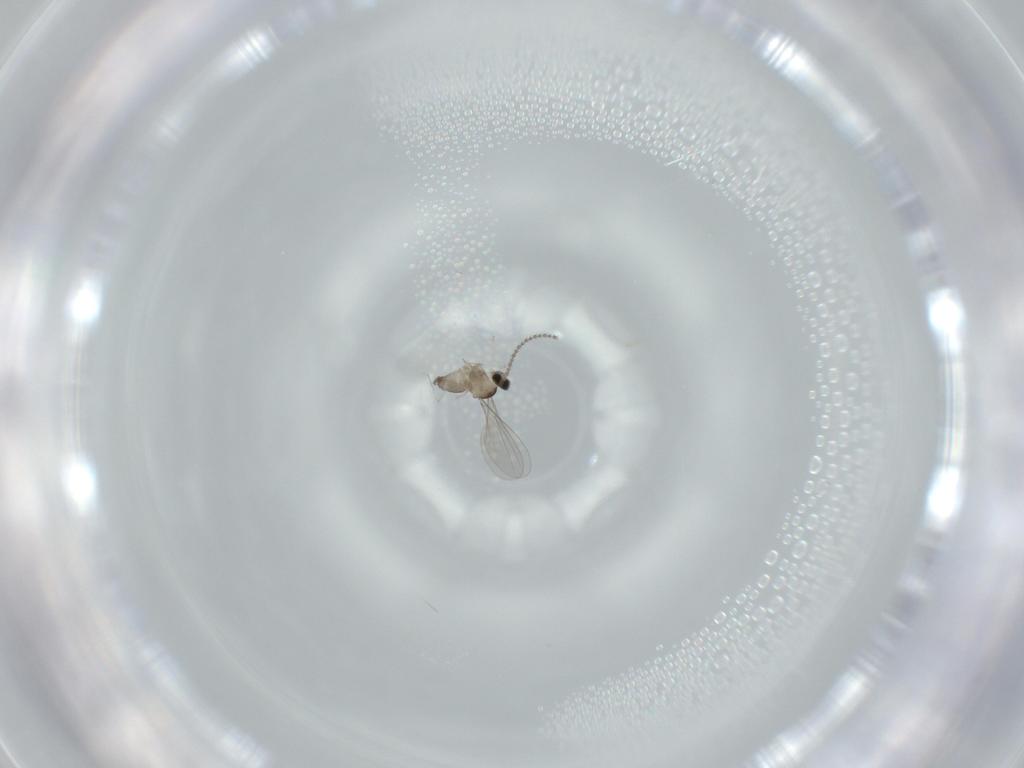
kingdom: Animalia
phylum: Arthropoda
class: Insecta
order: Diptera
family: Cecidomyiidae
